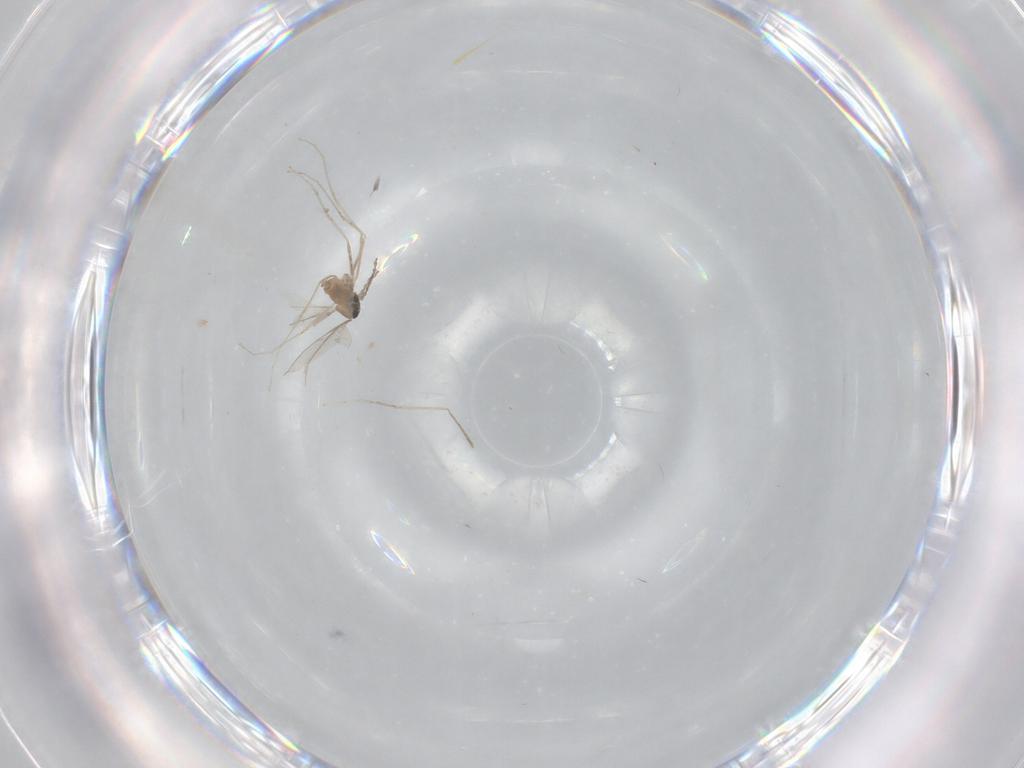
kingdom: Animalia
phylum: Arthropoda
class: Insecta
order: Diptera
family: Cecidomyiidae
